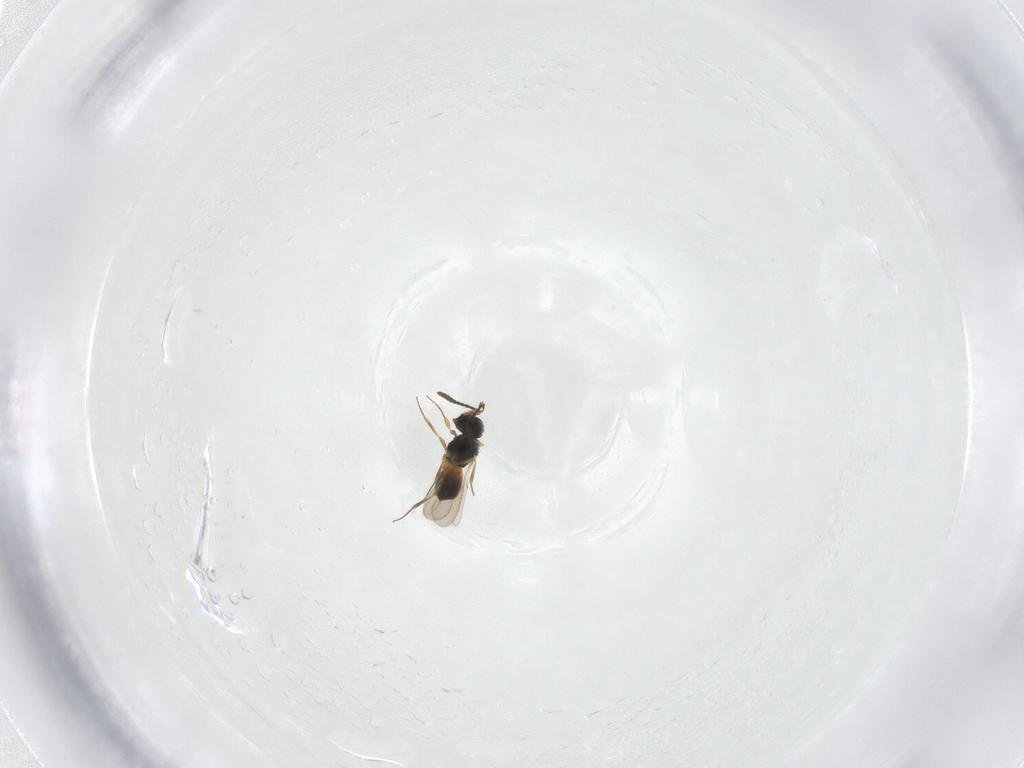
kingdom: Animalia
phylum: Arthropoda
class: Insecta
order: Hymenoptera
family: Scelionidae
